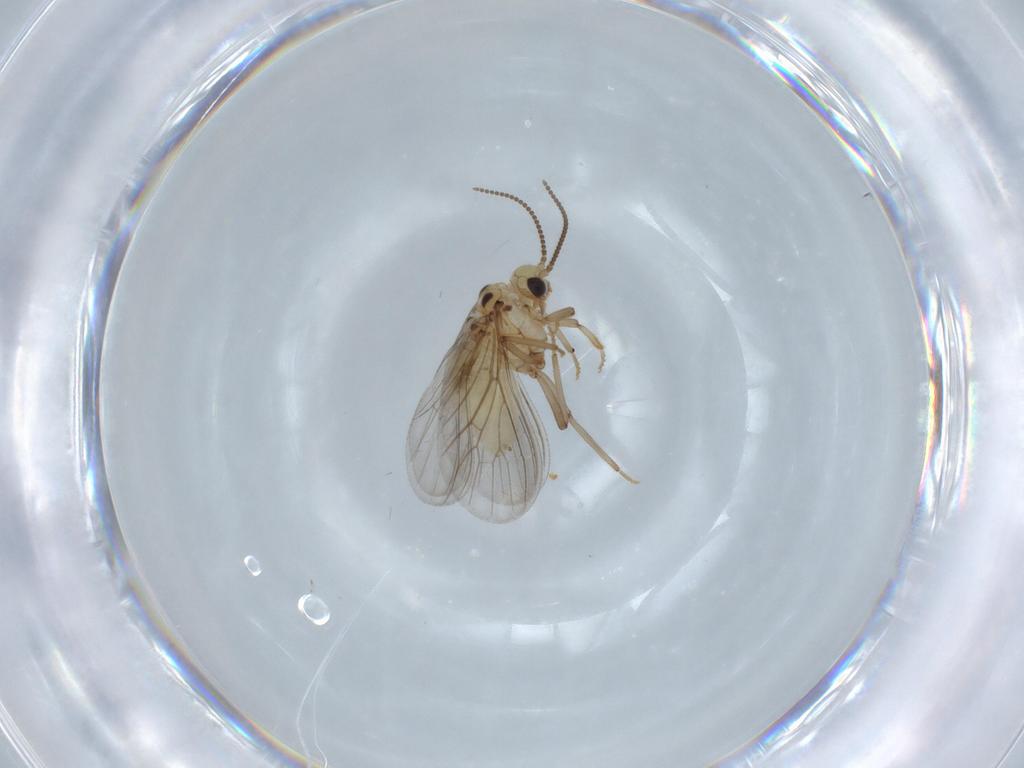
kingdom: Animalia
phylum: Arthropoda
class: Insecta
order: Neuroptera
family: Coniopterygidae
